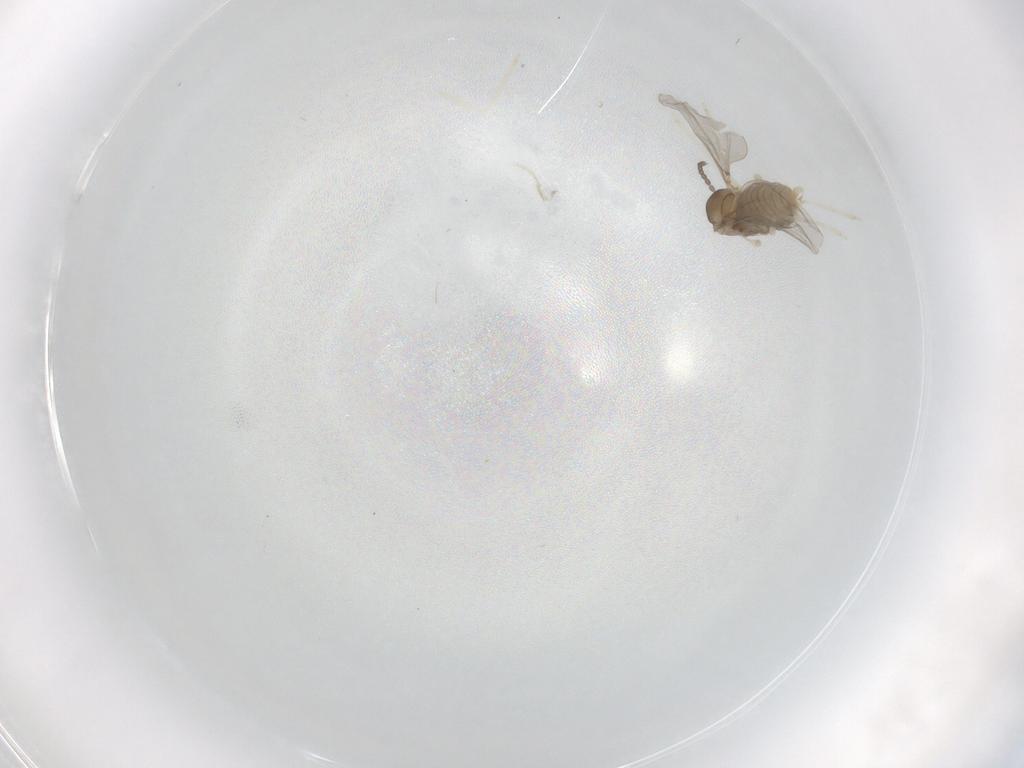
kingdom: Animalia
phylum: Arthropoda
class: Insecta
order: Diptera
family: Cecidomyiidae
